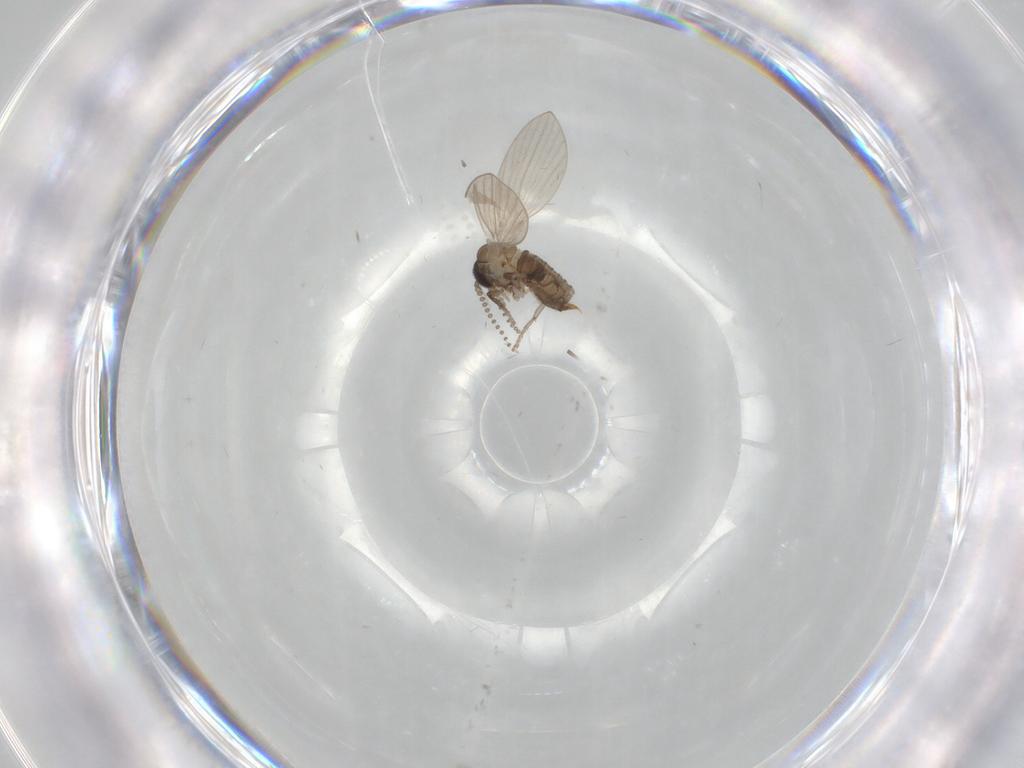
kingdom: Animalia
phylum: Arthropoda
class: Insecta
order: Diptera
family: Psychodidae
